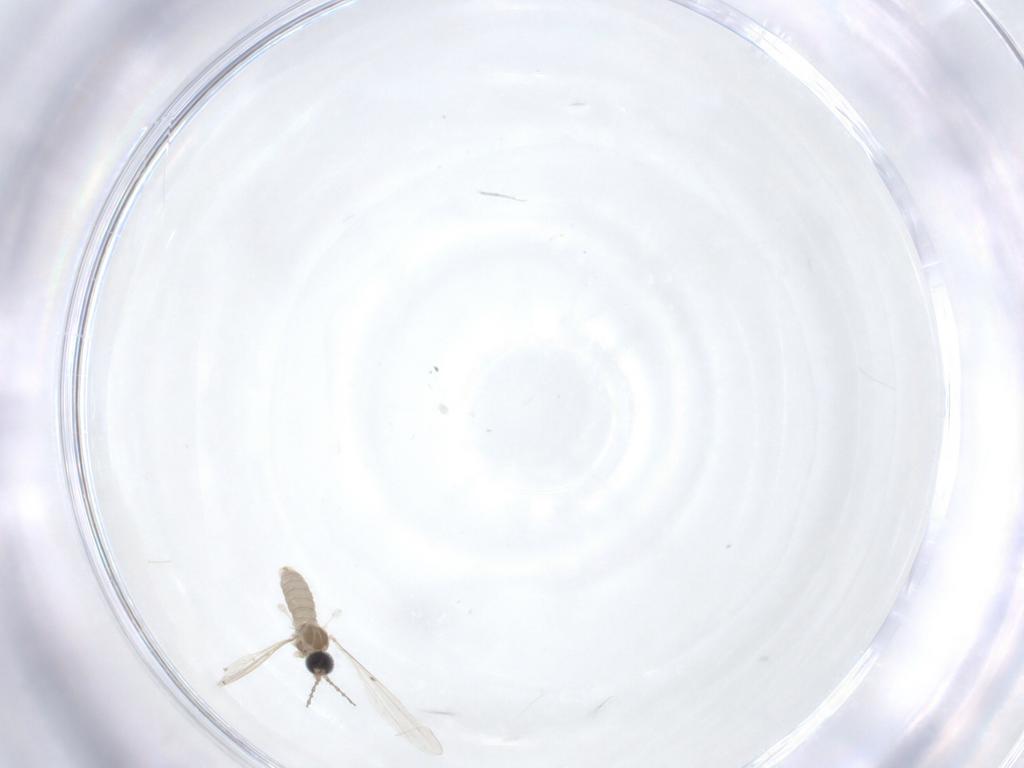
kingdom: Animalia
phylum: Arthropoda
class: Insecta
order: Diptera
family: Cecidomyiidae
